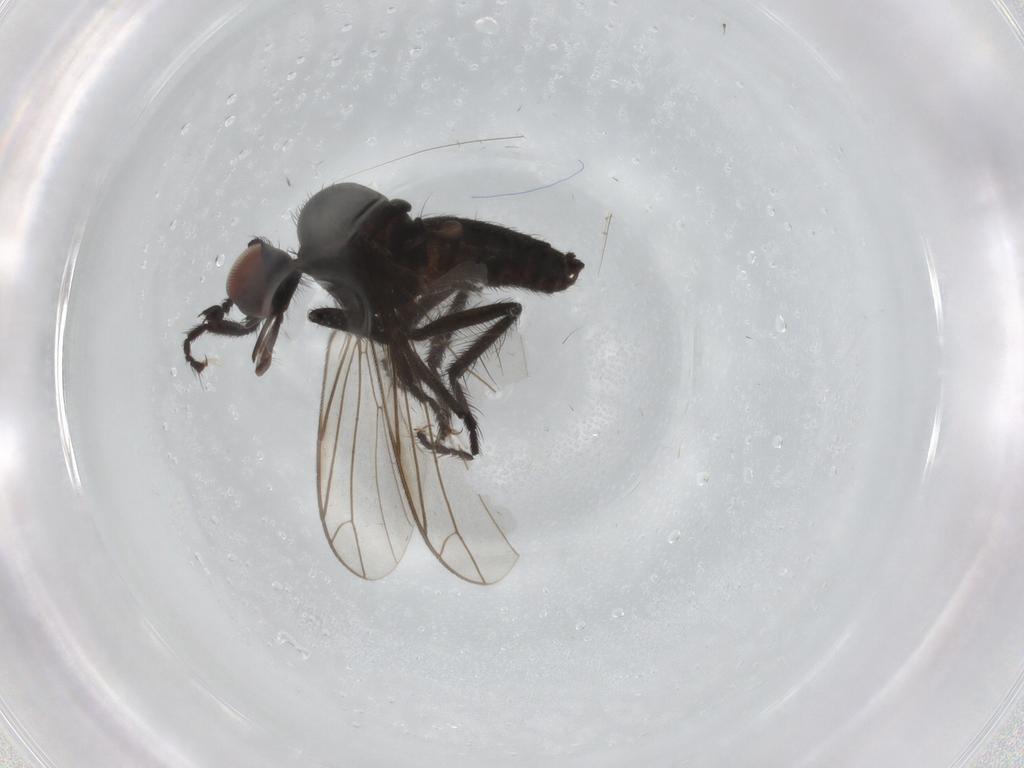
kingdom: Animalia
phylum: Arthropoda
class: Insecta
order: Diptera
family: Empididae
